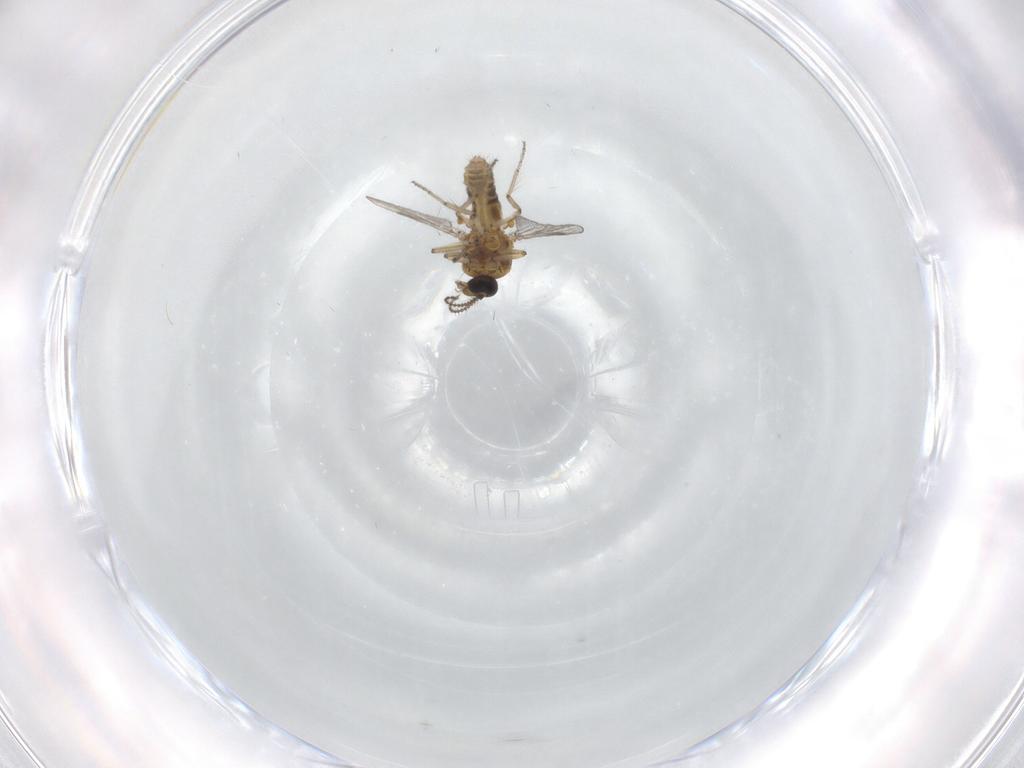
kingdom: Animalia
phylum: Arthropoda
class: Insecta
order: Diptera
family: Ceratopogonidae
